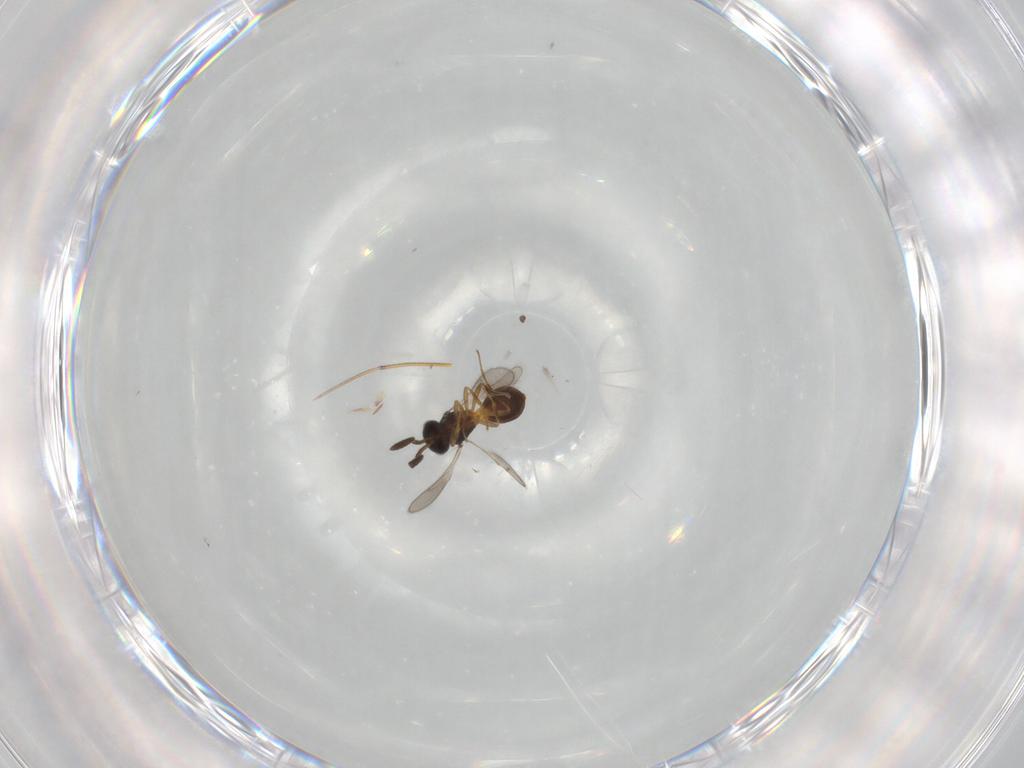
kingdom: Animalia
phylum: Arthropoda
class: Insecta
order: Hymenoptera
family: Scelionidae
